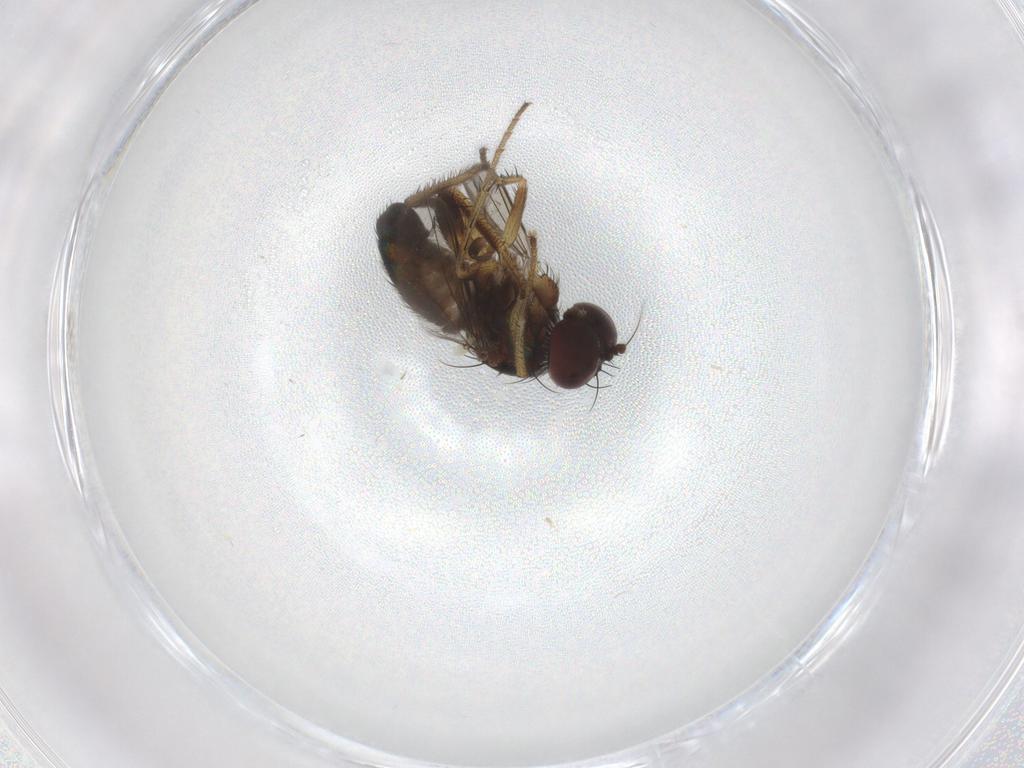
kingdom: Animalia
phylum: Arthropoda
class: Insecta
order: Diptera
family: Dolichopodidae
